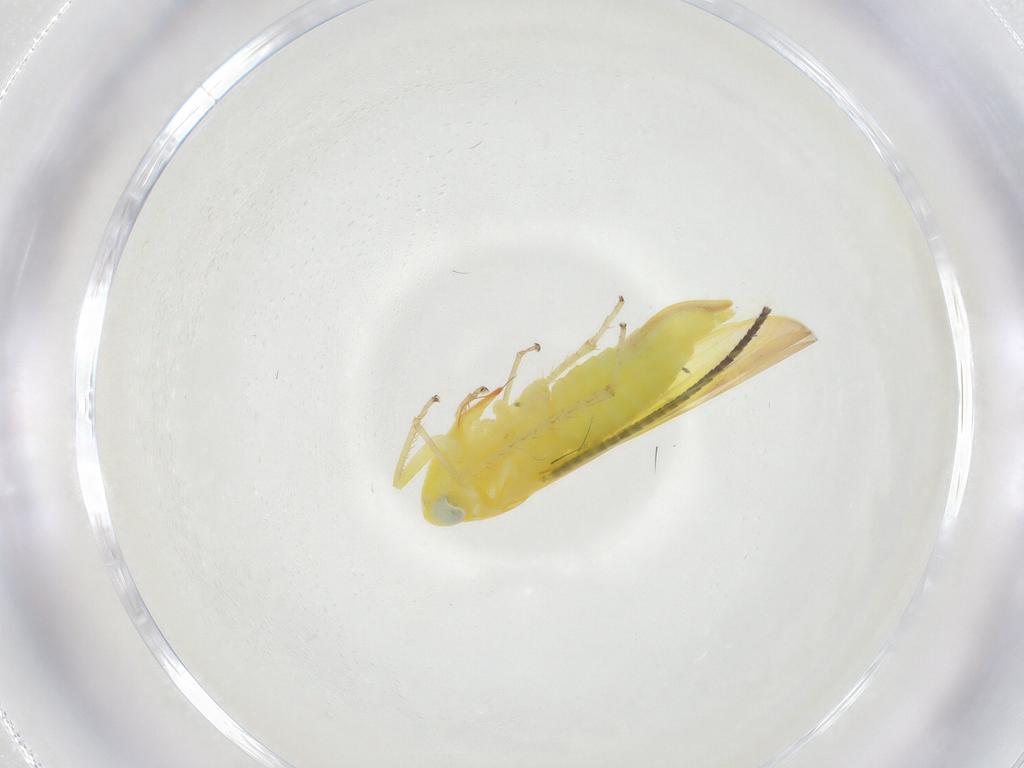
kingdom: Animalia
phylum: Arthropoda
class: Insecta
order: Hemiptera
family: Cicadellidae
